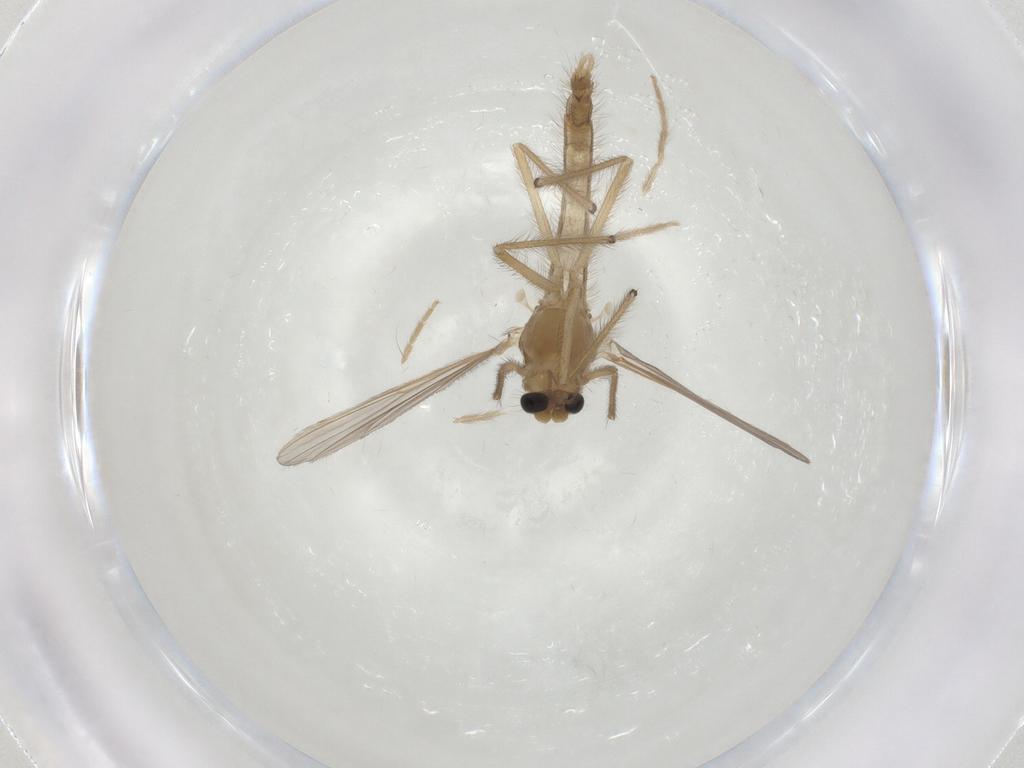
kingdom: Animalia
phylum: Arthropoda
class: Insecta
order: Diptera
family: Chironomidae
